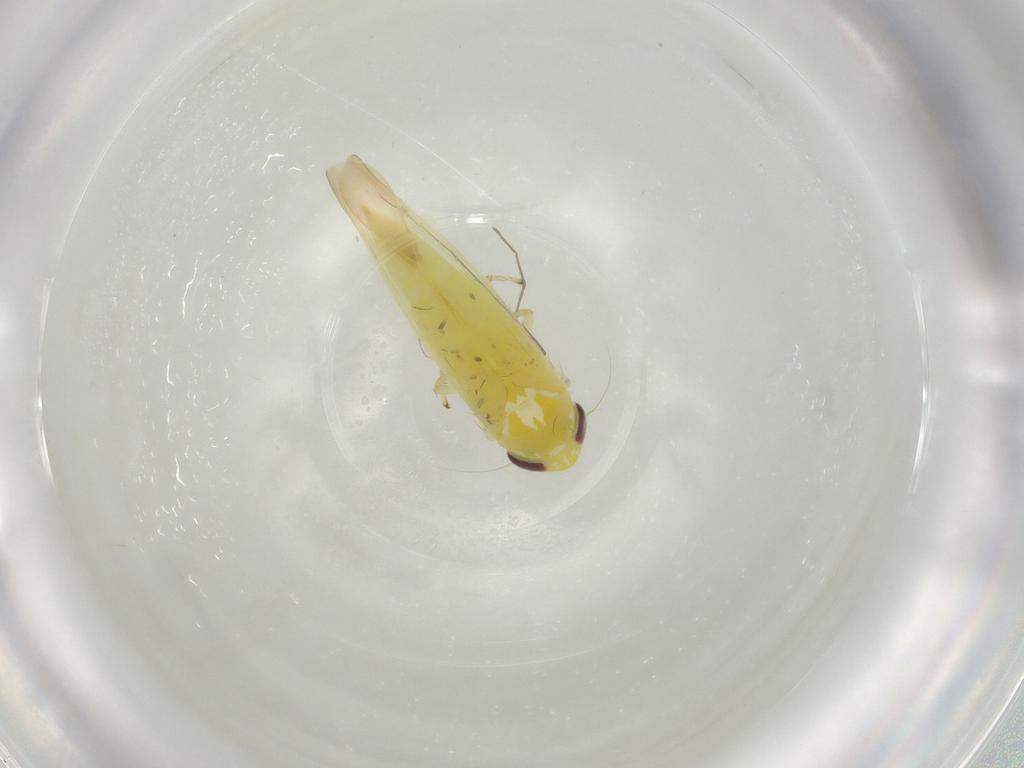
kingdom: Animalia
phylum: Arthropoda
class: Insecta
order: Hemiptera
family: Cicadellidae
